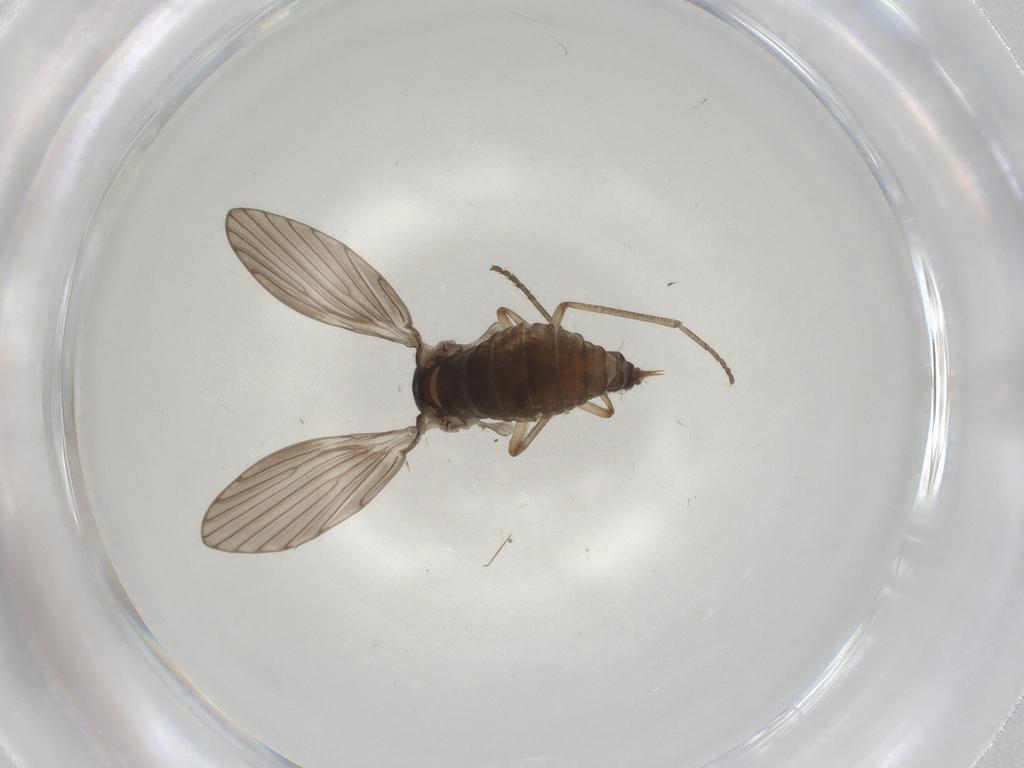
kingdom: Animalia
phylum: Arthropoda
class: Insecta
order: Diptera
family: Psychodidae
